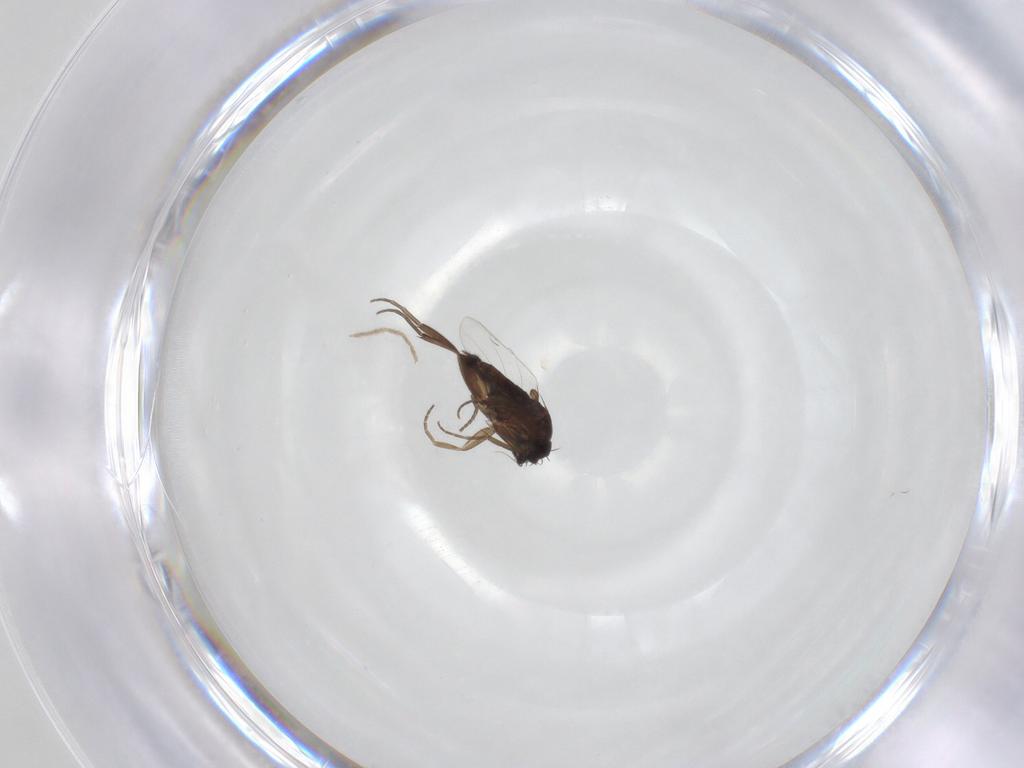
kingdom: Animalia
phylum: Arthropoda
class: Insecta
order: Diptera
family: Phoridae
